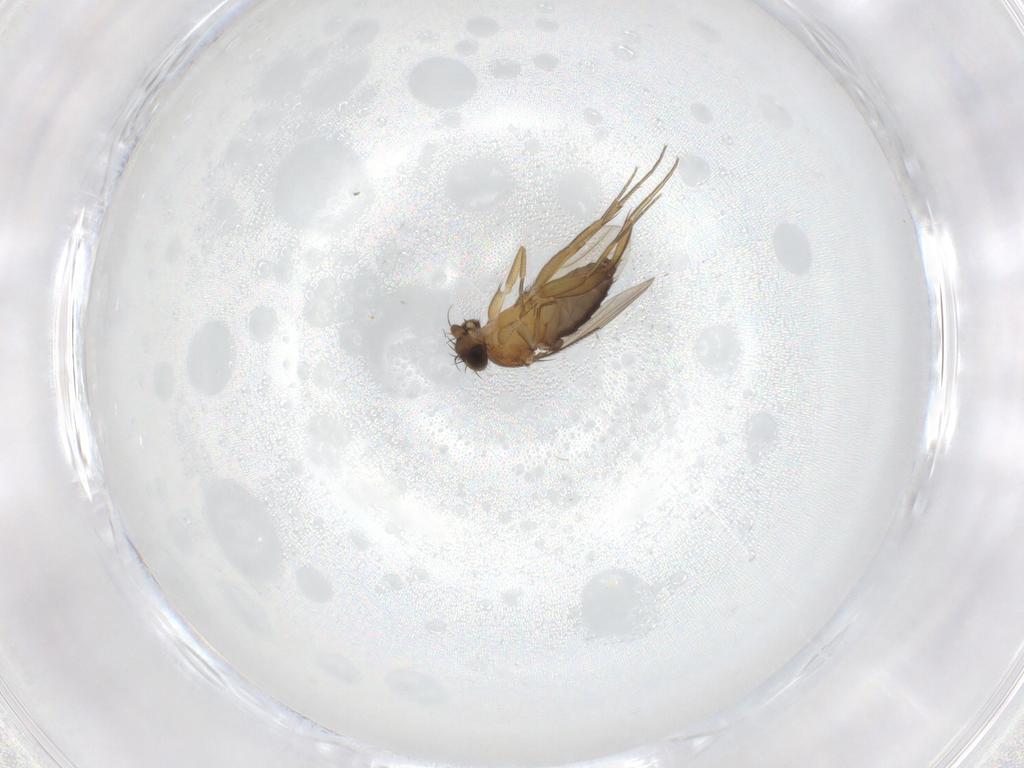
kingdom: Animalia
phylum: Arthropoda
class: Insecta
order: Diptera
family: Phoridae
